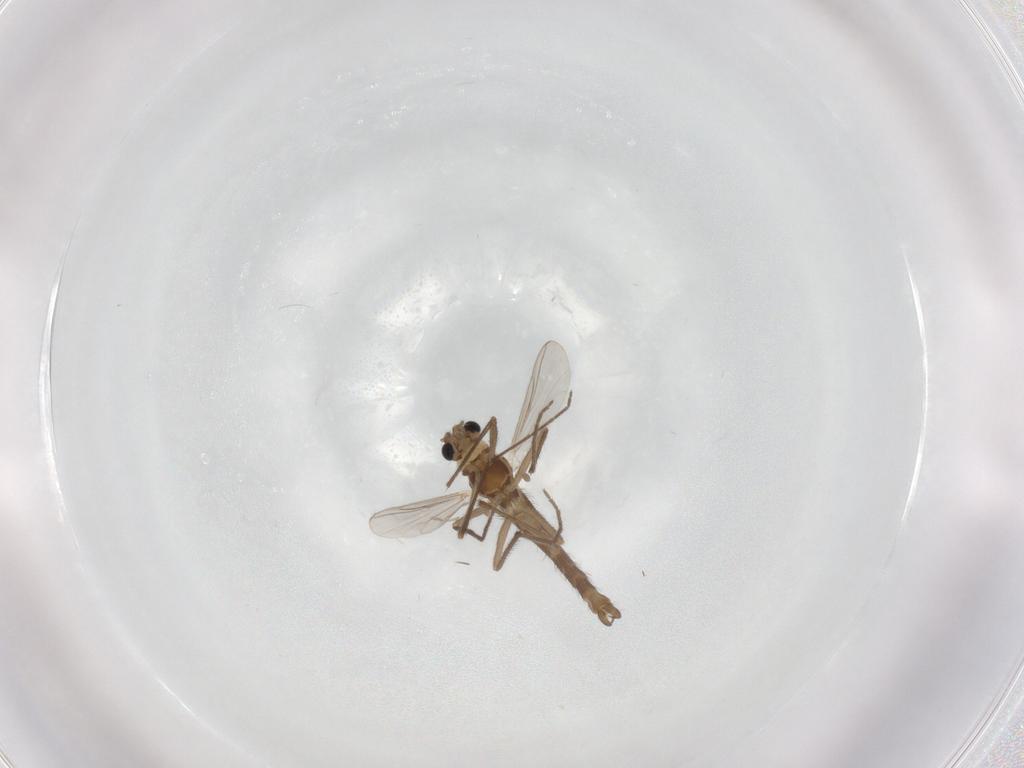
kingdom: Animalia
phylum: Arthropoda
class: Insecta
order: Diptera
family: Chironomidae
